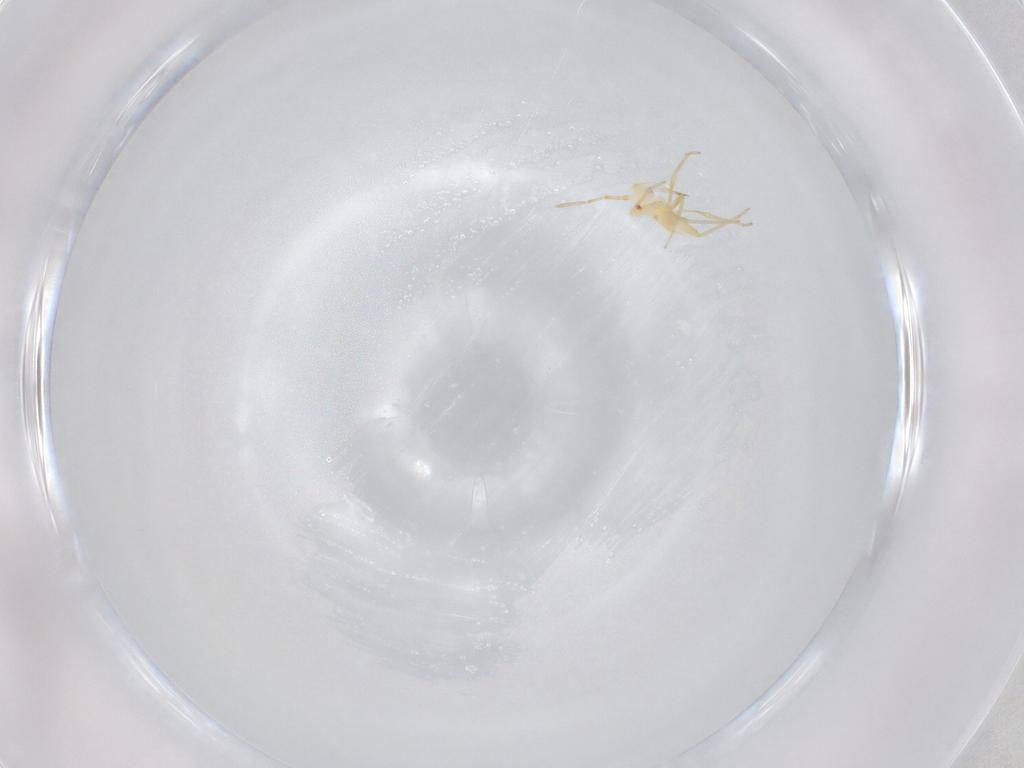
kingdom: Animalia
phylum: Arthropoda
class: Insecta
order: Hemiptera
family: Miridae
